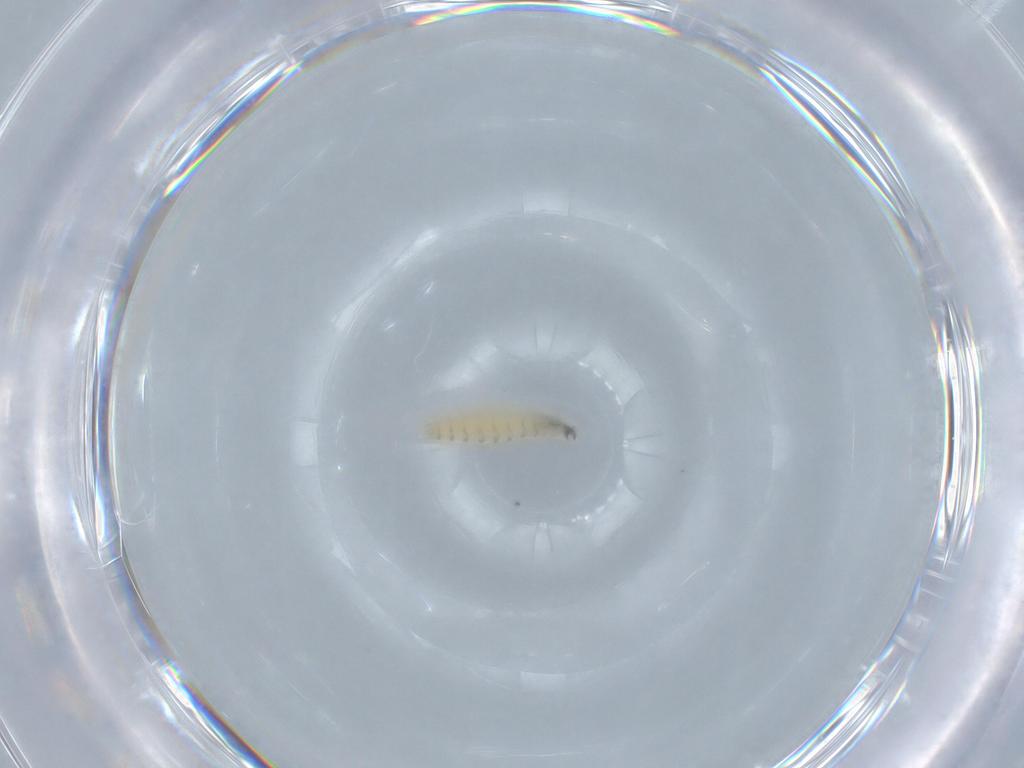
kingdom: Animalia
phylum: Arthropoda
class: Insecta
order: Diptera
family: Sarcophagidae
